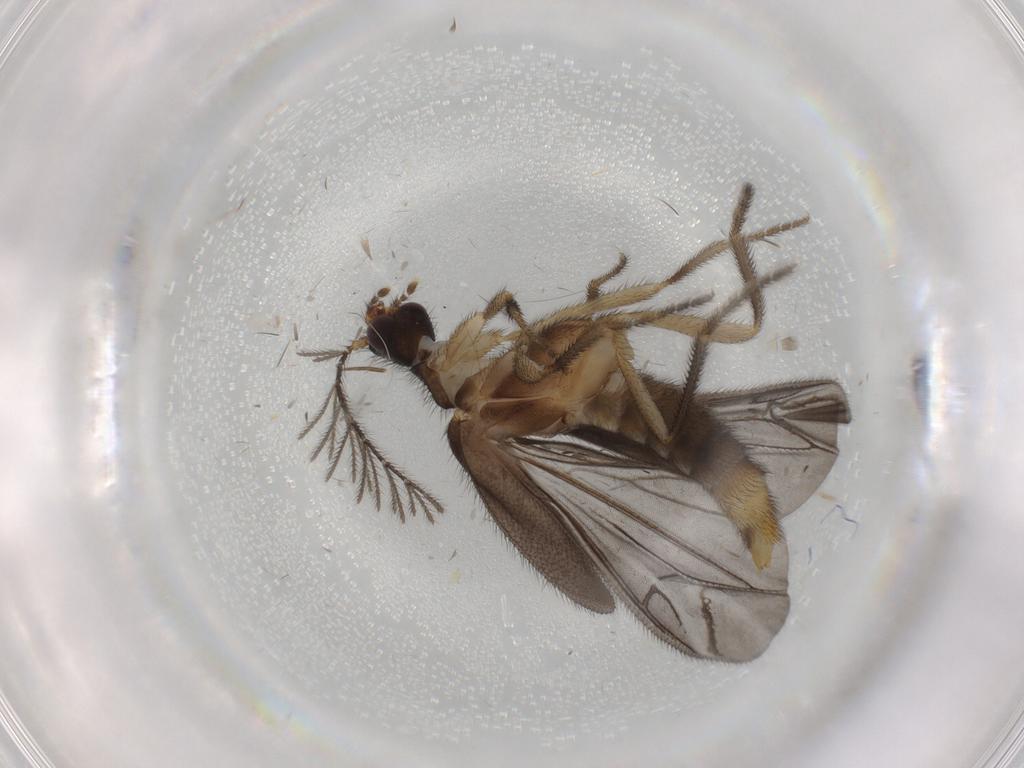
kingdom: Animalia
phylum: Arthropoda
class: Insecta
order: Coleoptera
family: Endomychidae
